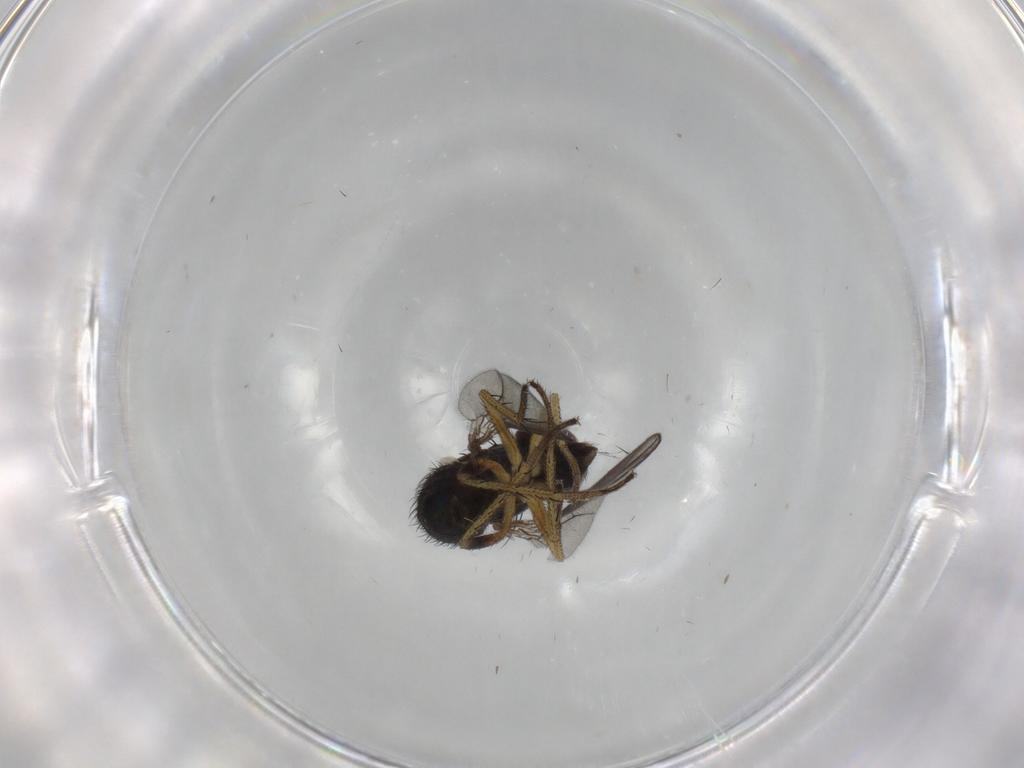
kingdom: Animalia
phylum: Arthropoda
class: Insecta
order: Diptera
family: Dolichopodidae
